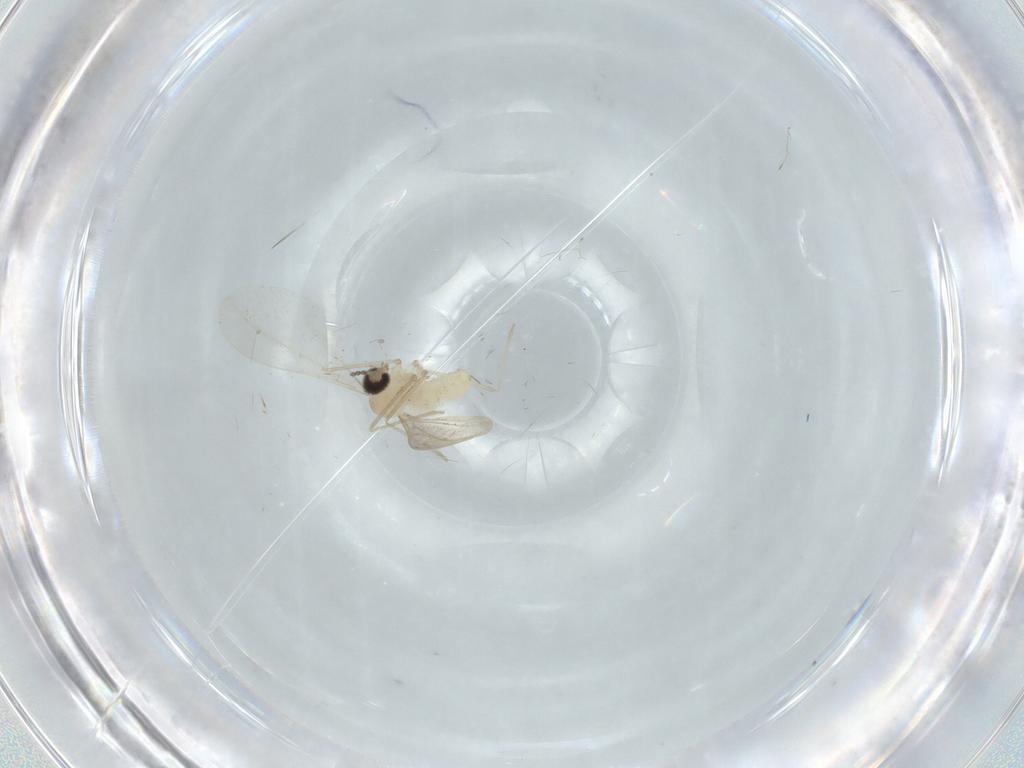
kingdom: Animalia
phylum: Arthropoda
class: Insecta
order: Diptera
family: Cecidomyiidae
